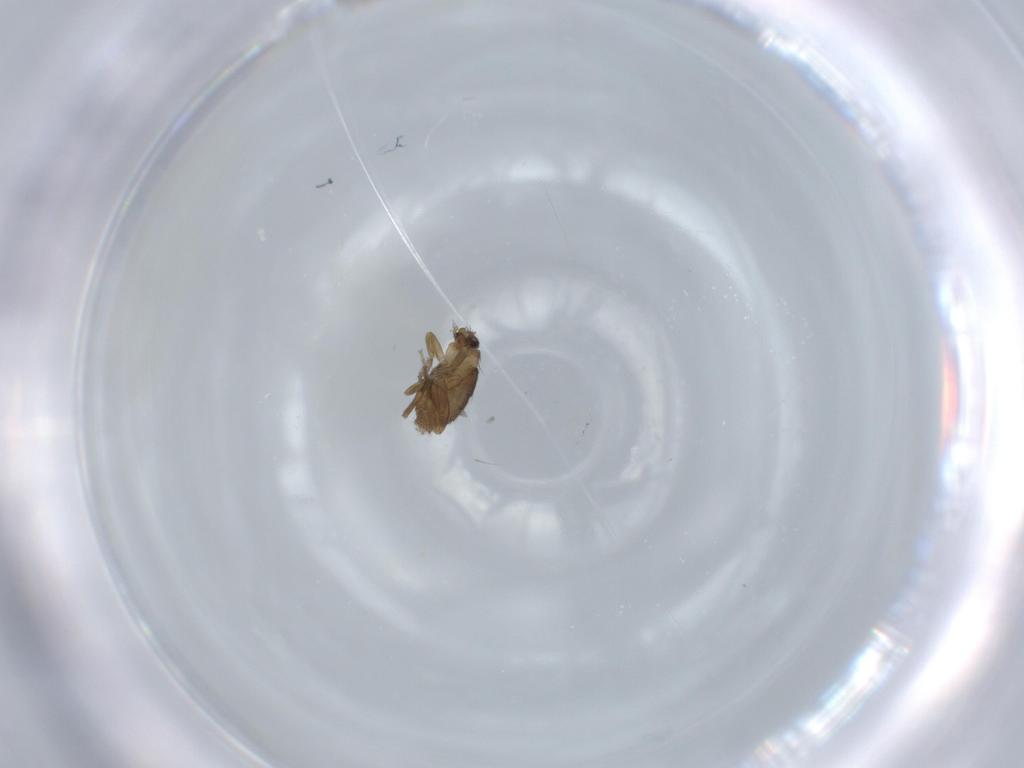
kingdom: Animalia
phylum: Arthropoda
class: Insecta
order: Diptera
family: Phoridae
